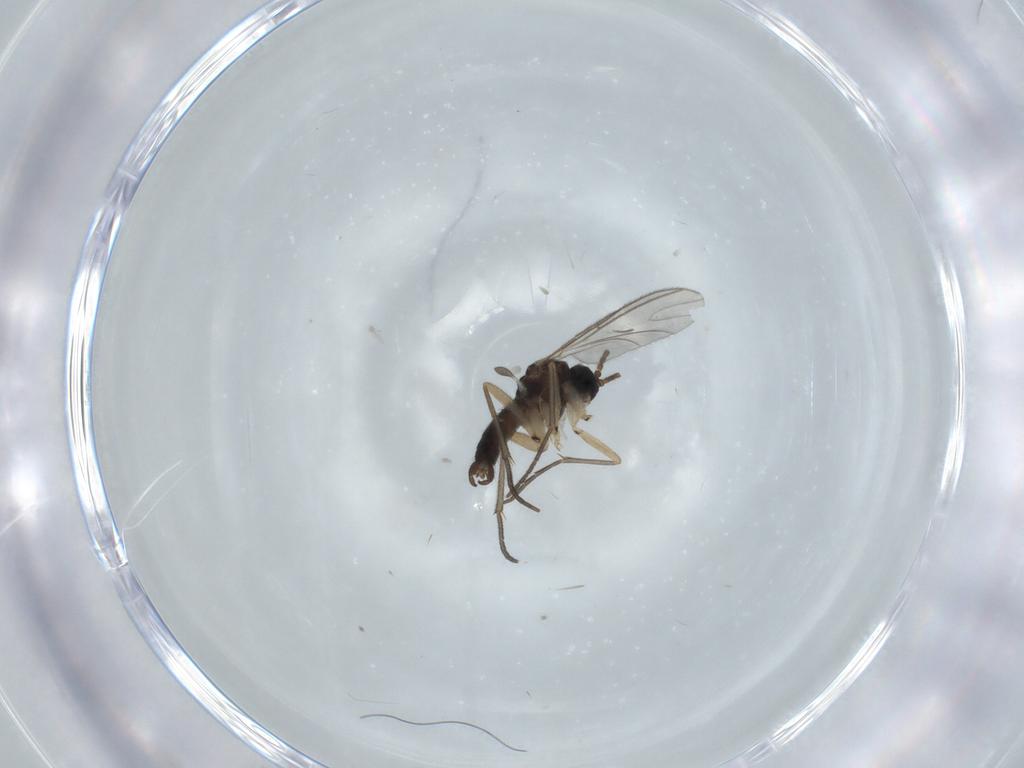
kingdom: Animalia
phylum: Arthropoda
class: Insecta
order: Diptera
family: Sciaridae
